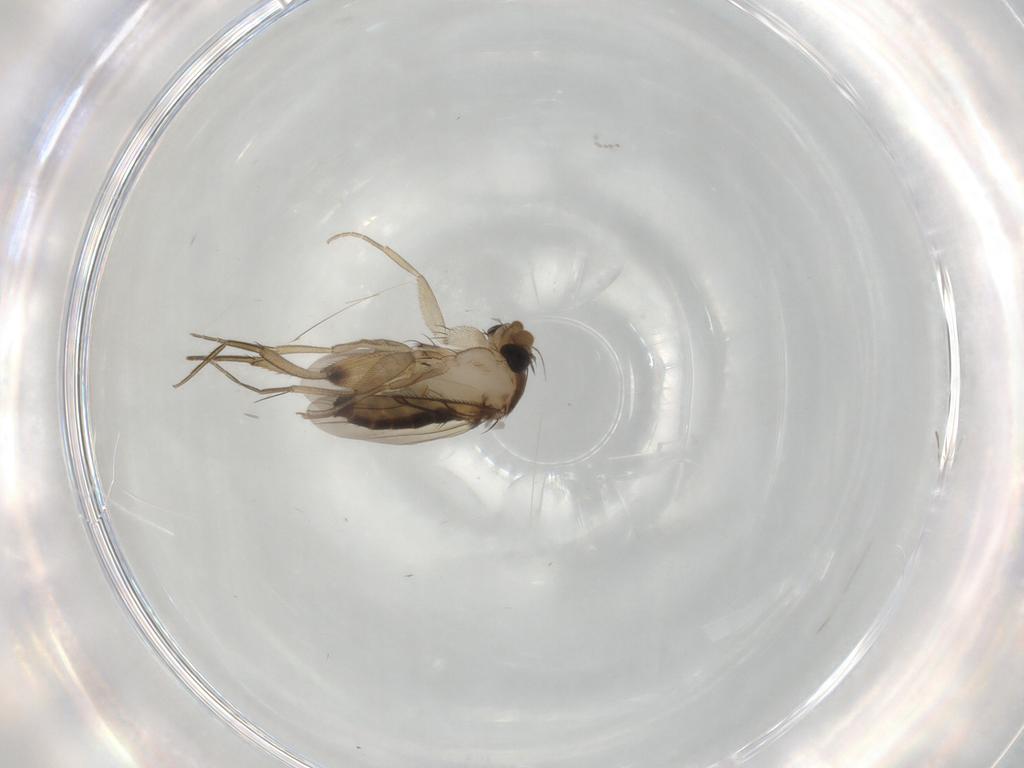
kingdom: Animalia
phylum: Arthropoda
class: Insecta
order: Diptera
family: Phoridae
